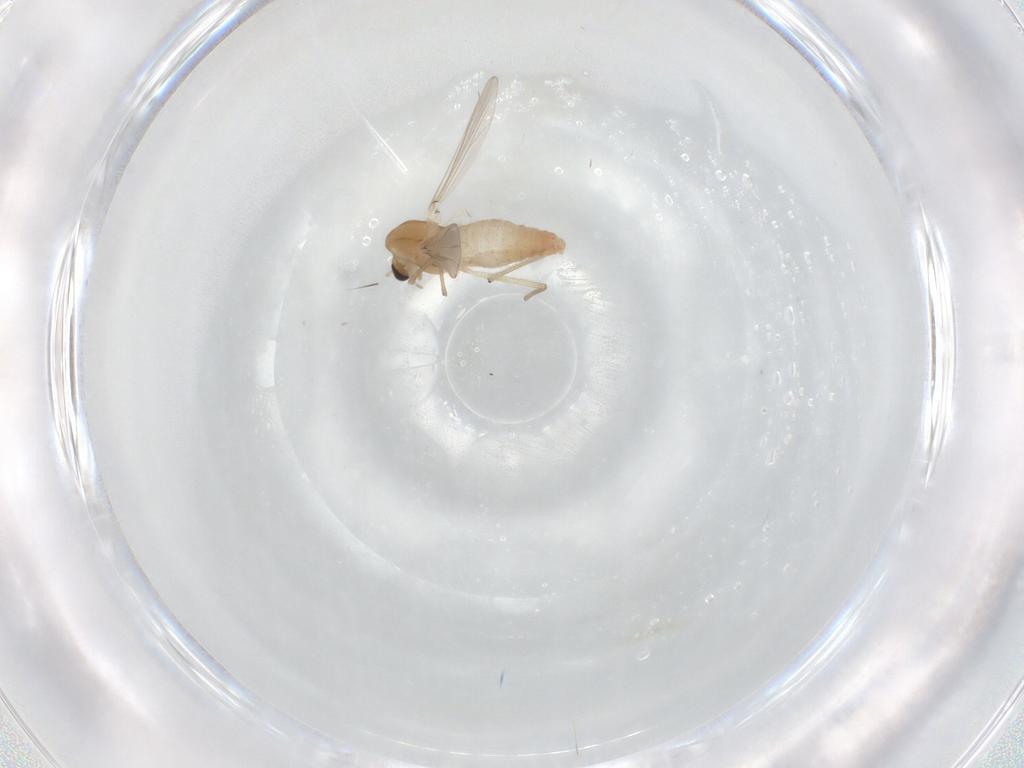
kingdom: Animalia
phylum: Arthropoda
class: Insecta
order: Diptera
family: Chironomidae
